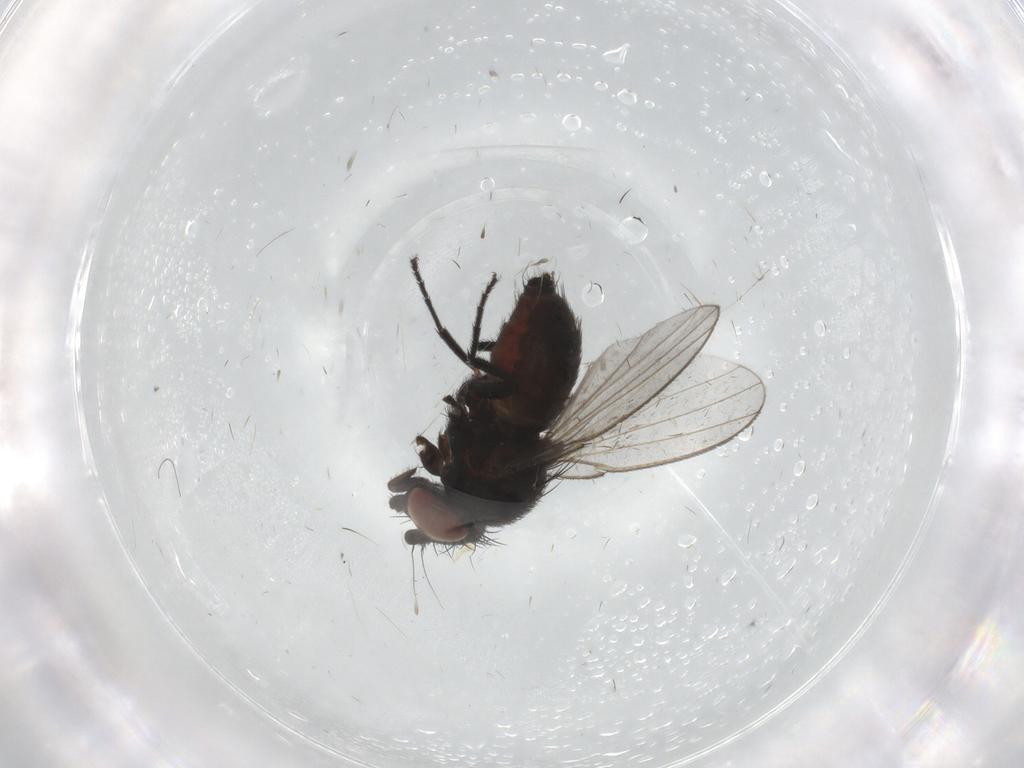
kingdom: Animalia
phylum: Arthropoda
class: Insecta
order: Diptera
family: Milichiidae
